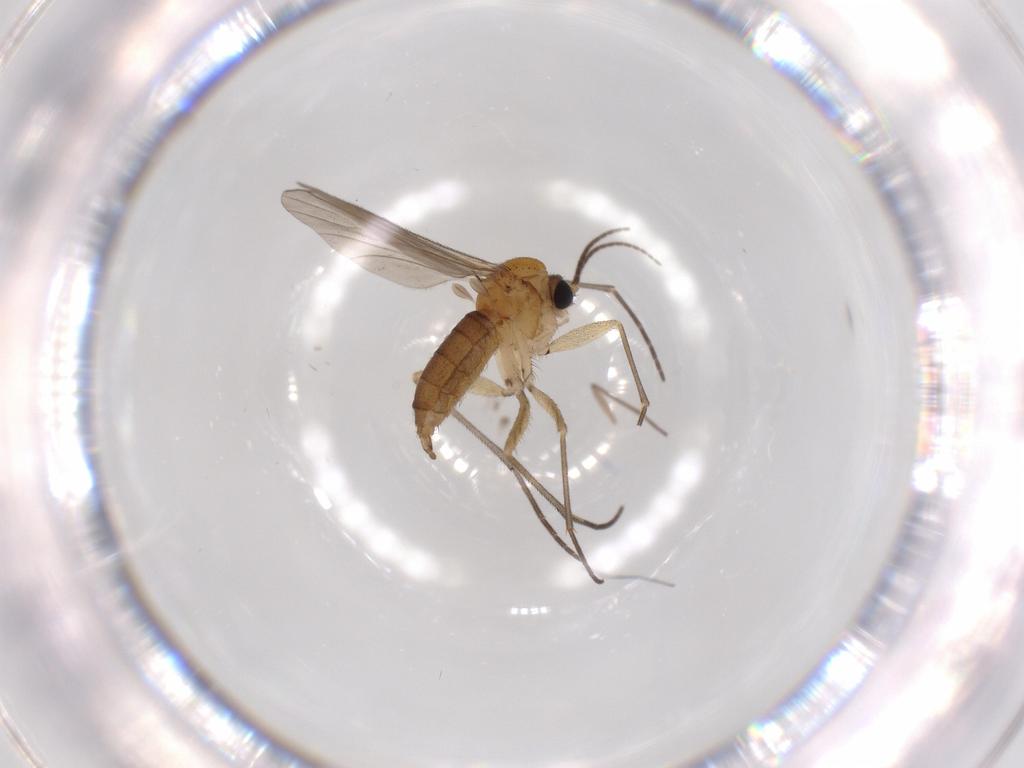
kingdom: Animalia
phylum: Arthropoda
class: Insecta
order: Diptera
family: Sciaridae
